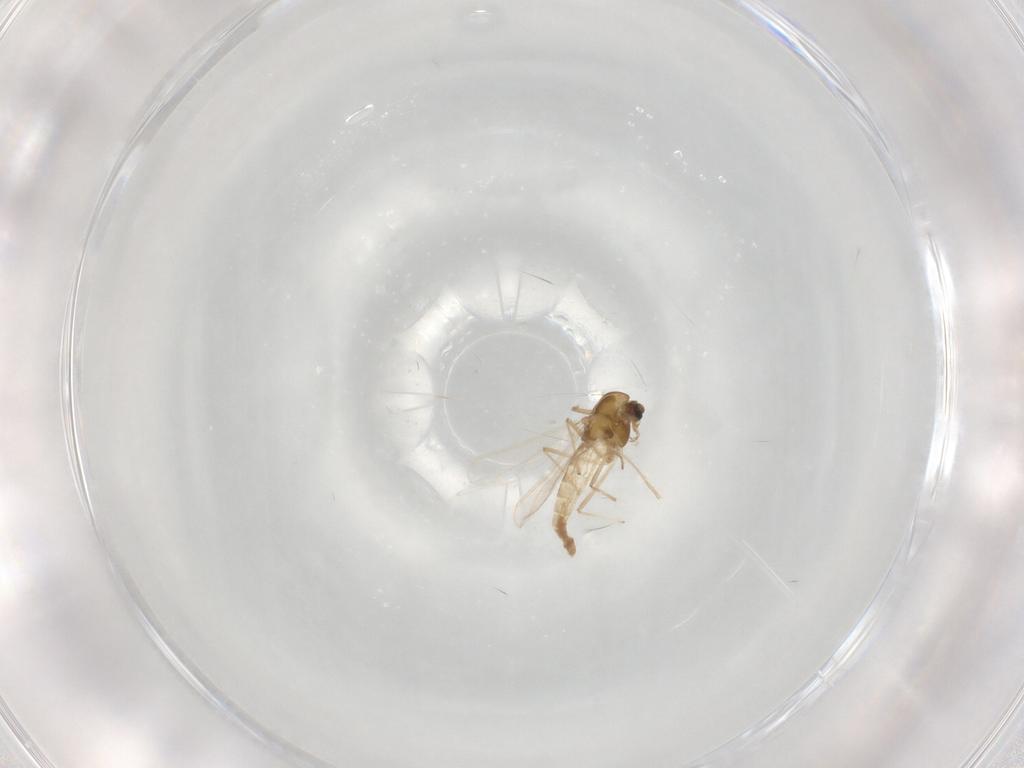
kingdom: Animalia
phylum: Arthropoda
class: Insecta
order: Diptera
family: Chironomidae
